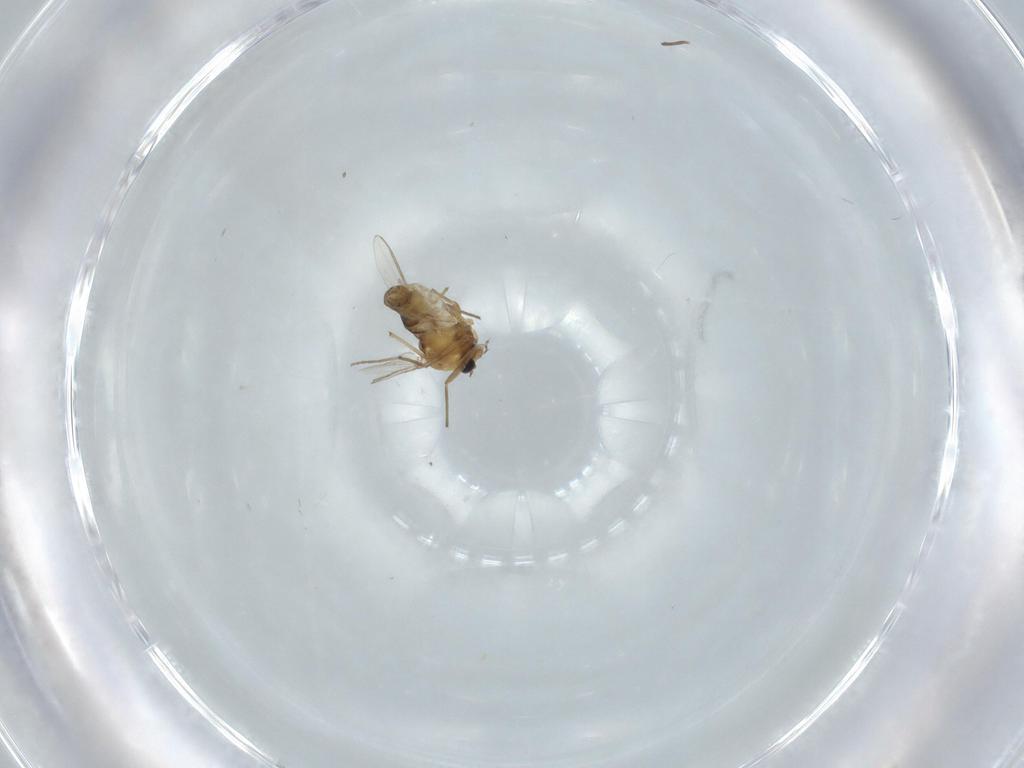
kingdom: Animalia
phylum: Arthropoda
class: Insecta
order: Diptera
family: Chironomidae
